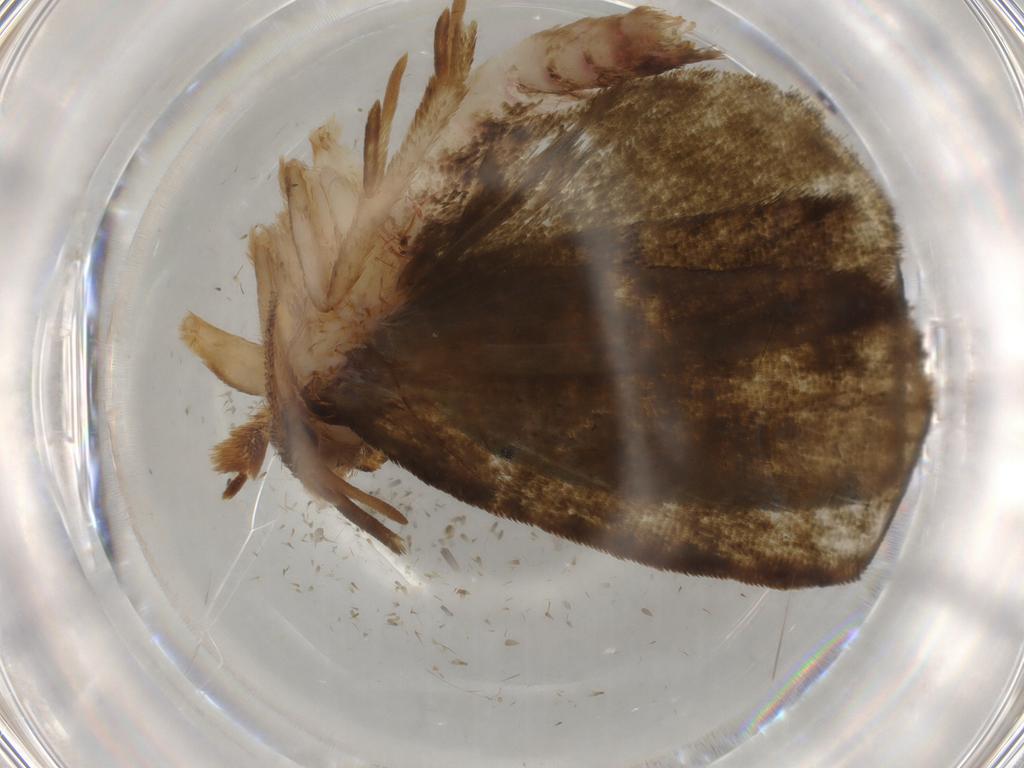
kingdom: Animalia
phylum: Arthropoda
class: Insecta
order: Lepidoptera
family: Geometridae
